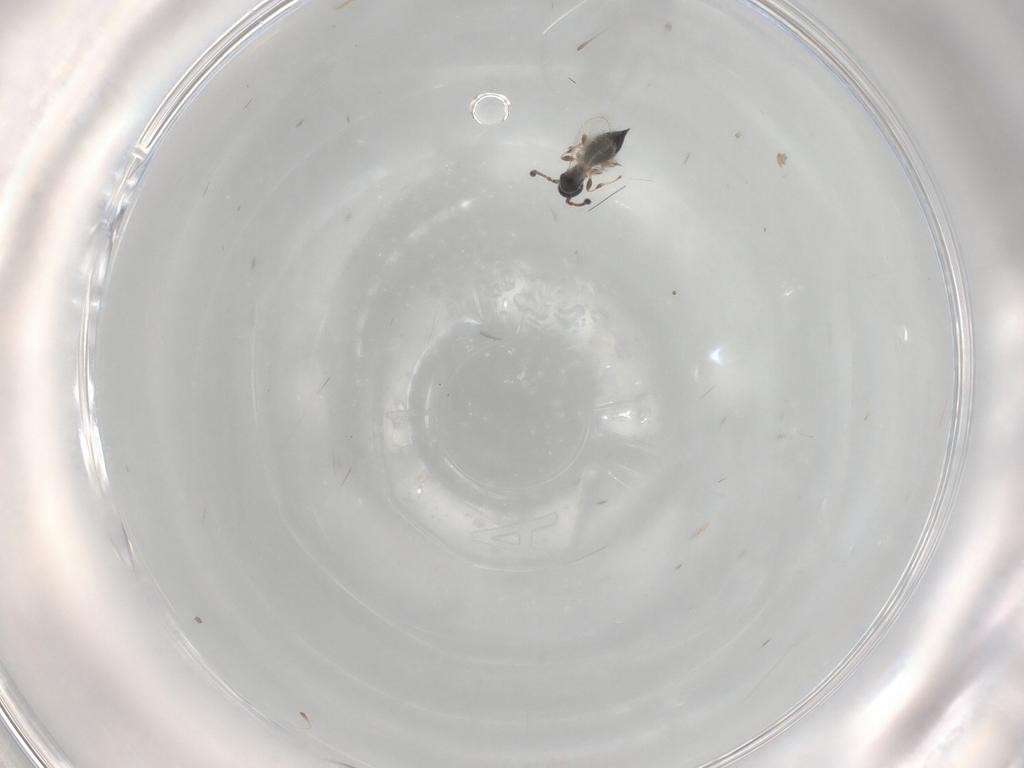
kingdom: Animalia
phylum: Arthropoda
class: Insecta
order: Hymenoptera
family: Diapriidae
